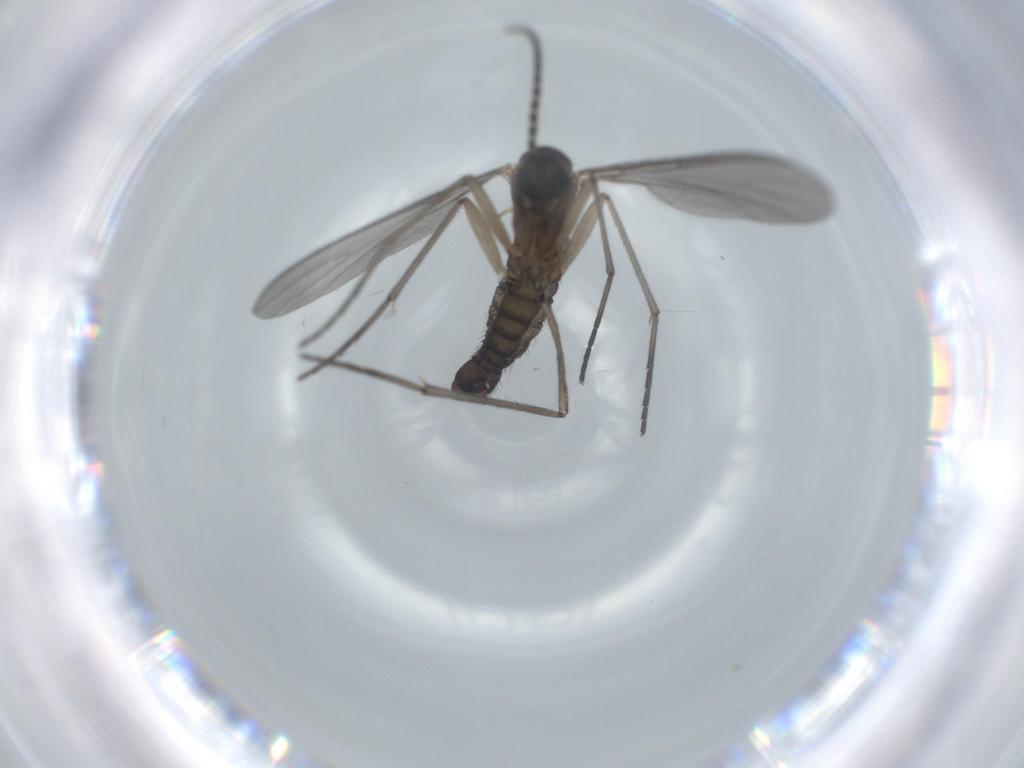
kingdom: Animalia
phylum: Arthropoda
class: Insecta
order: Diptera
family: Sciaridae
